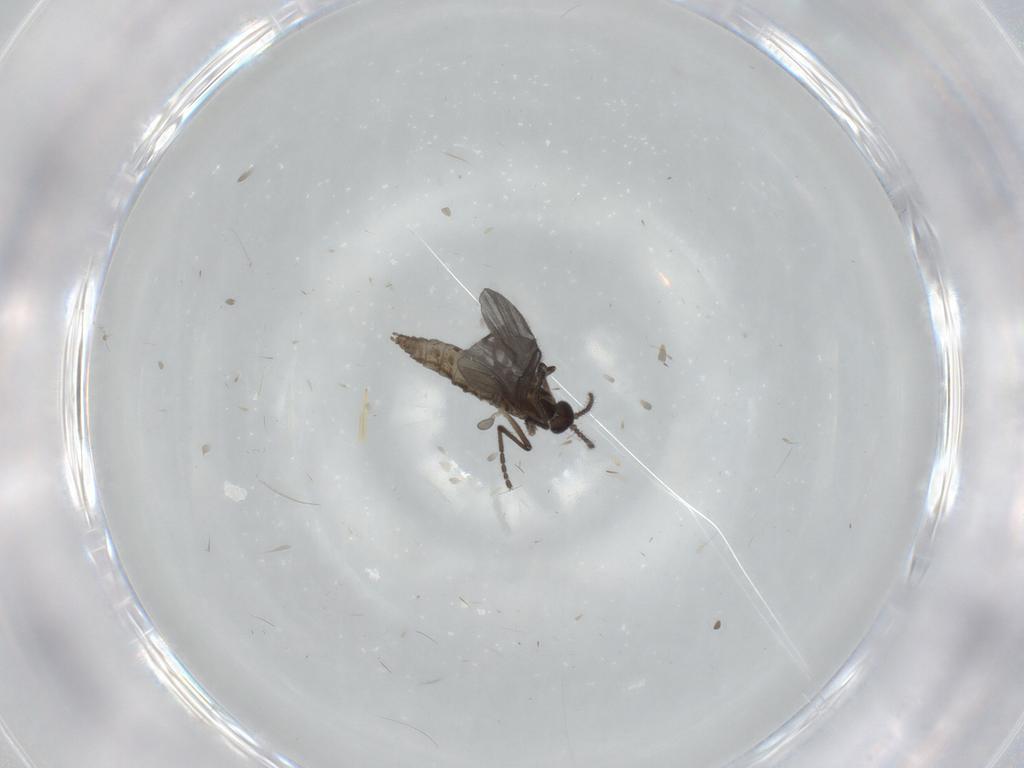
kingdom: Animalia
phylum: Arthropoda
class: Insecta
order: Diptera
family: Cecidomyiidae
